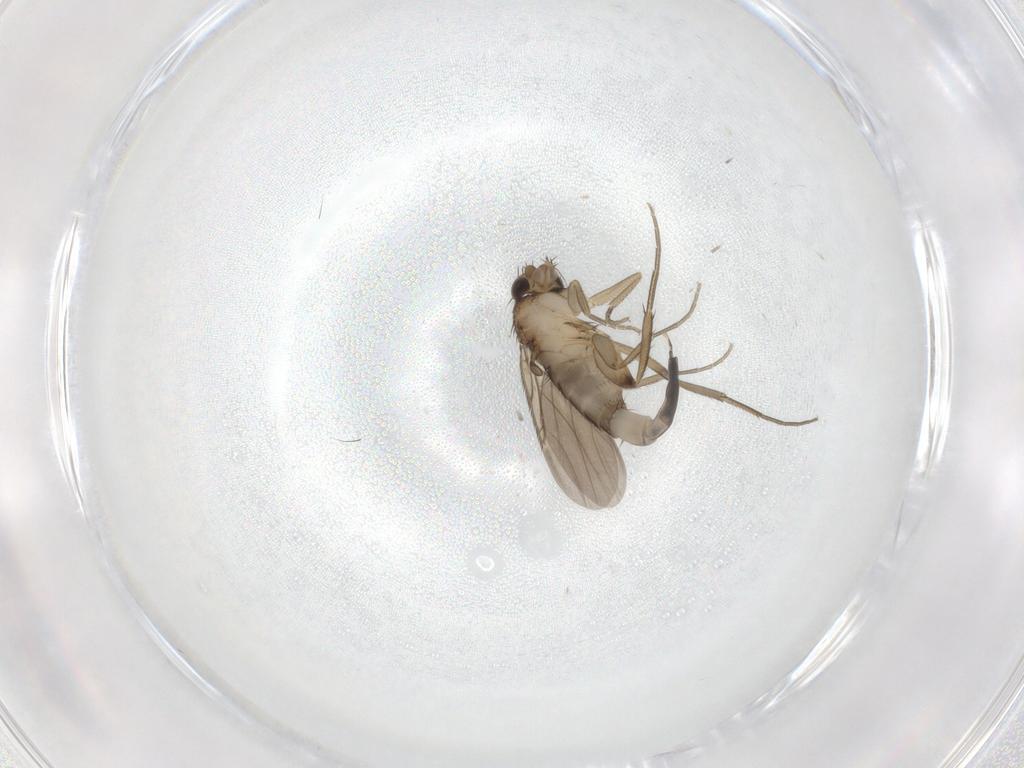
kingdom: Animalia
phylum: Arthropoda
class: Insecta
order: Diptera
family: Phoridae
